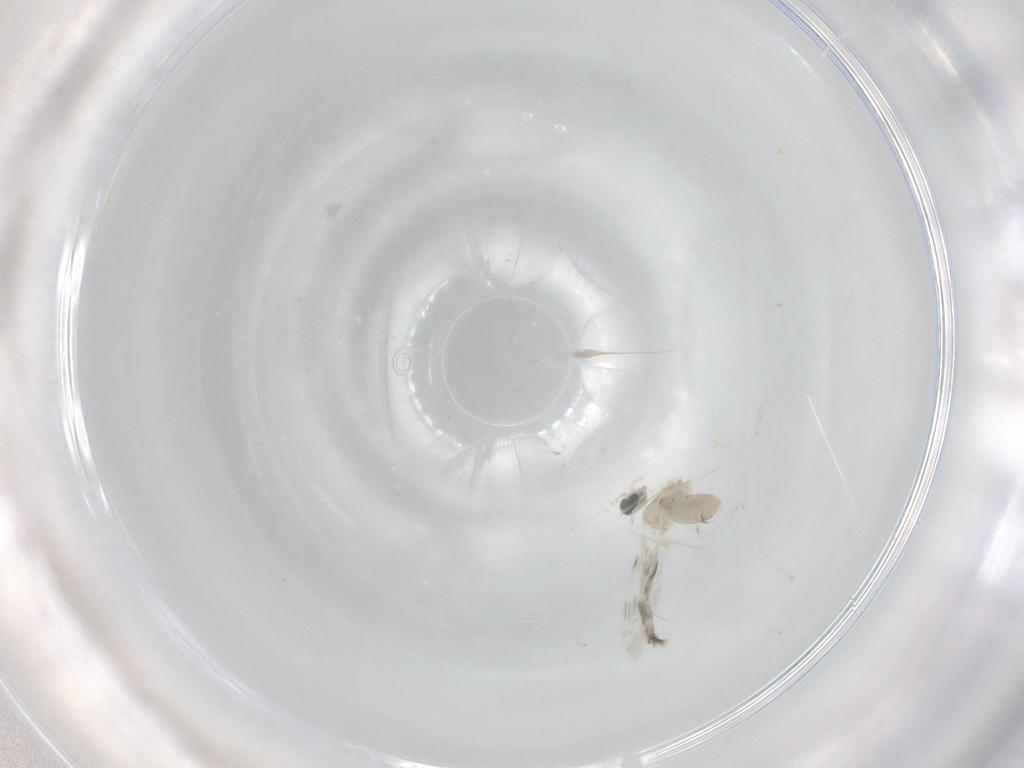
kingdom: Animalia
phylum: Arthropoda
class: Insecta
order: Diptera
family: Cecidomyiidae
